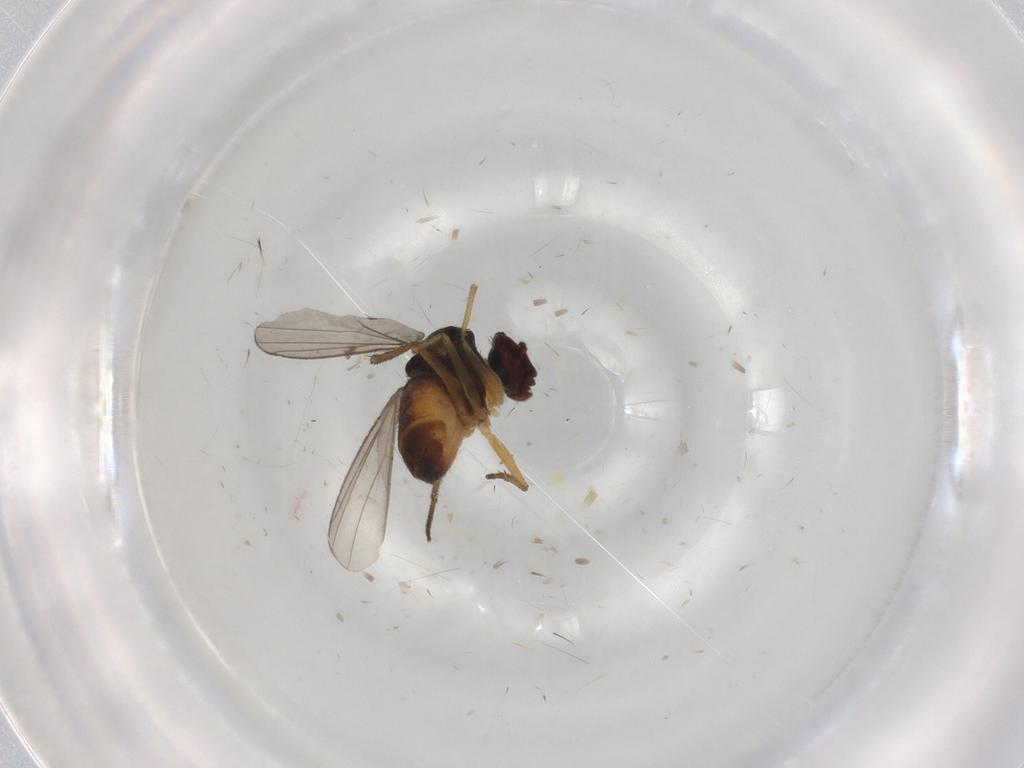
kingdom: Animalia
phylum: Arthropoda
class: Insecta
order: Diptera
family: Dolichopodidae
